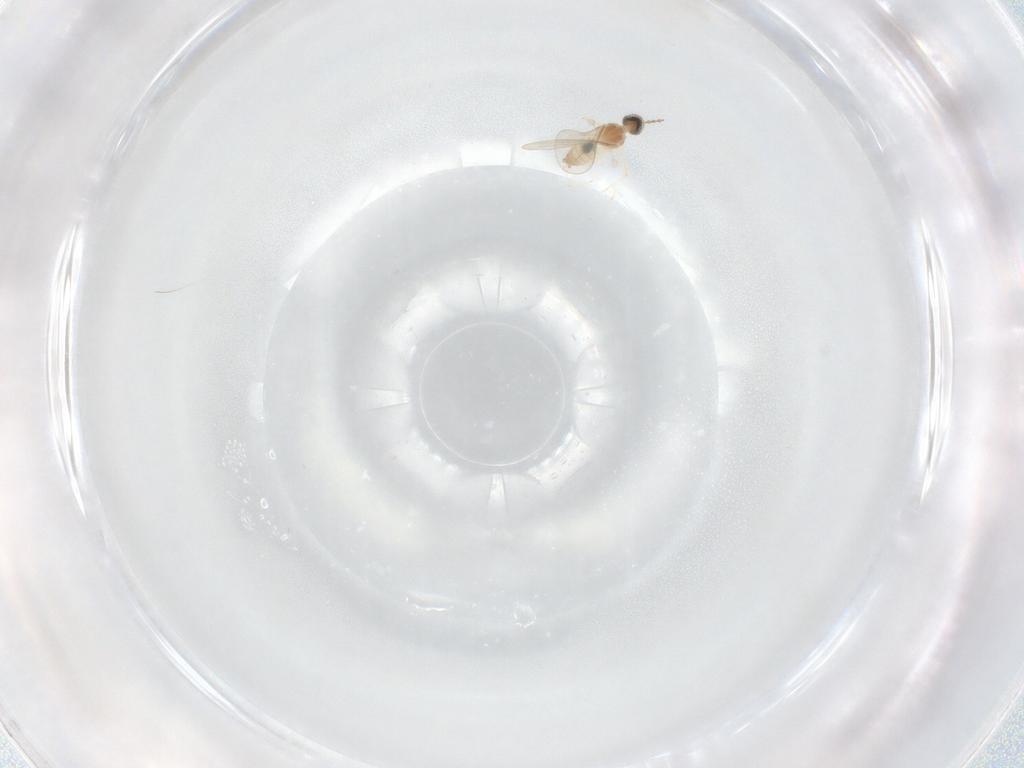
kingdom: Animalia
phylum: Arthropoda
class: Insecta
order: Diptera
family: Cecidomyiidae
